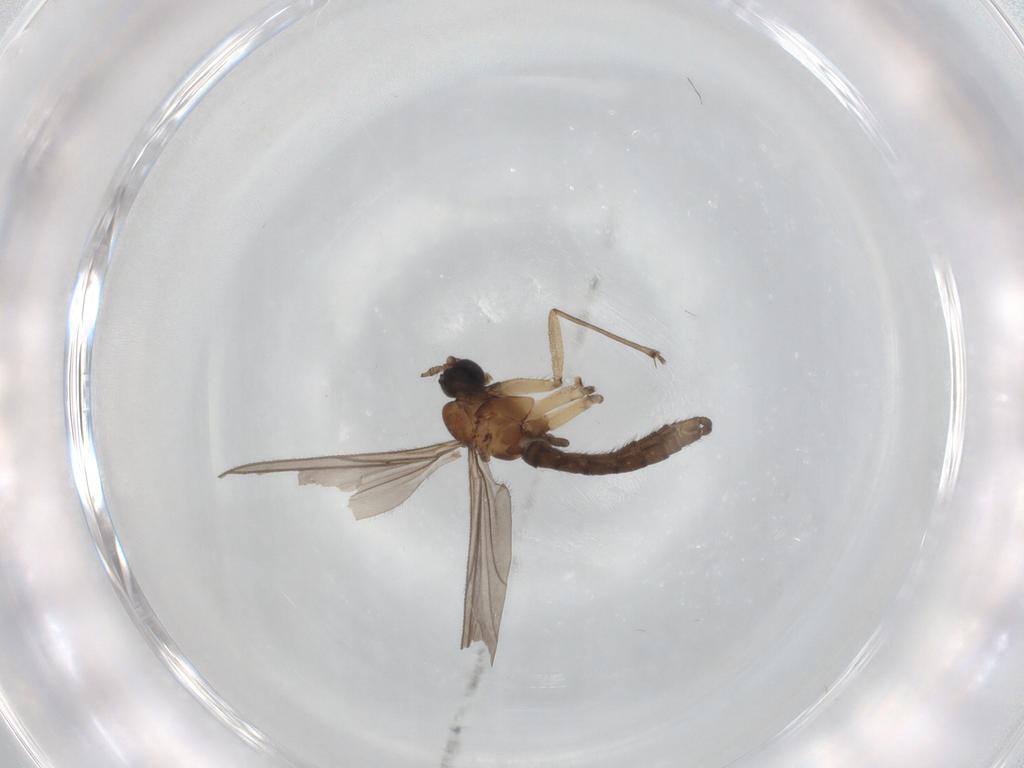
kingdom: Animalia
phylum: Arthropoda
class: Insecta
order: Diptera
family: Sciaridae
